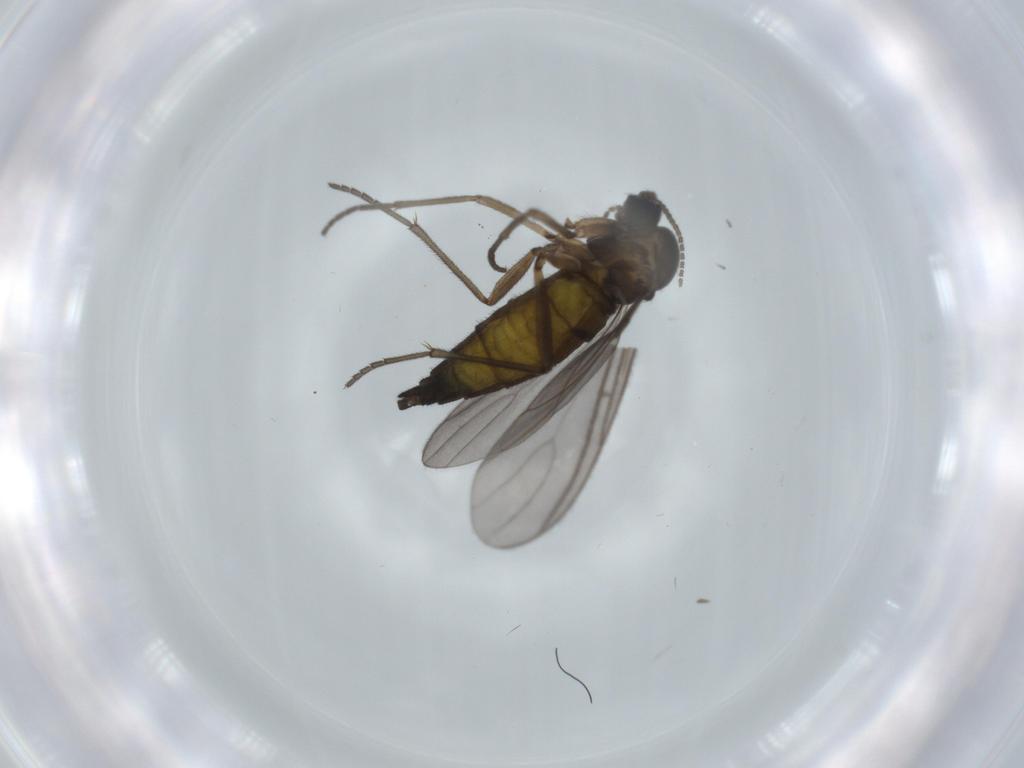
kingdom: Animalia
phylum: Arthropoda
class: Insecta
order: Diptera
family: Sciaridae
